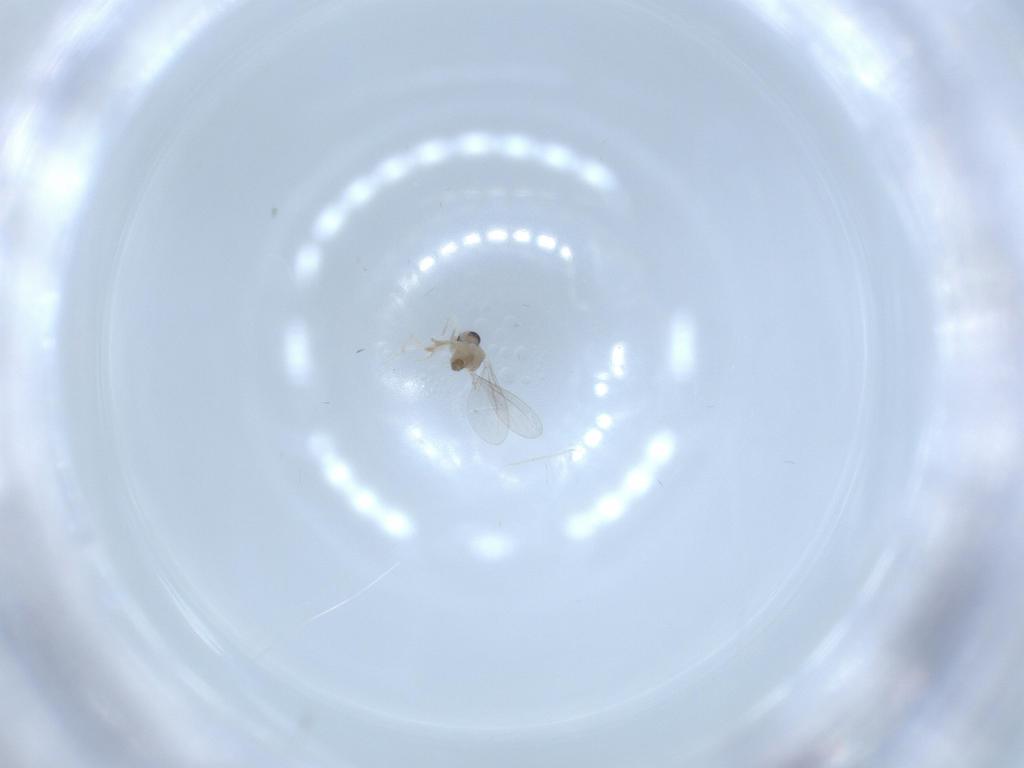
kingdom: Animalia
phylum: Arthropoda
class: Insecta
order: Diptera
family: Cecidomyiidae
